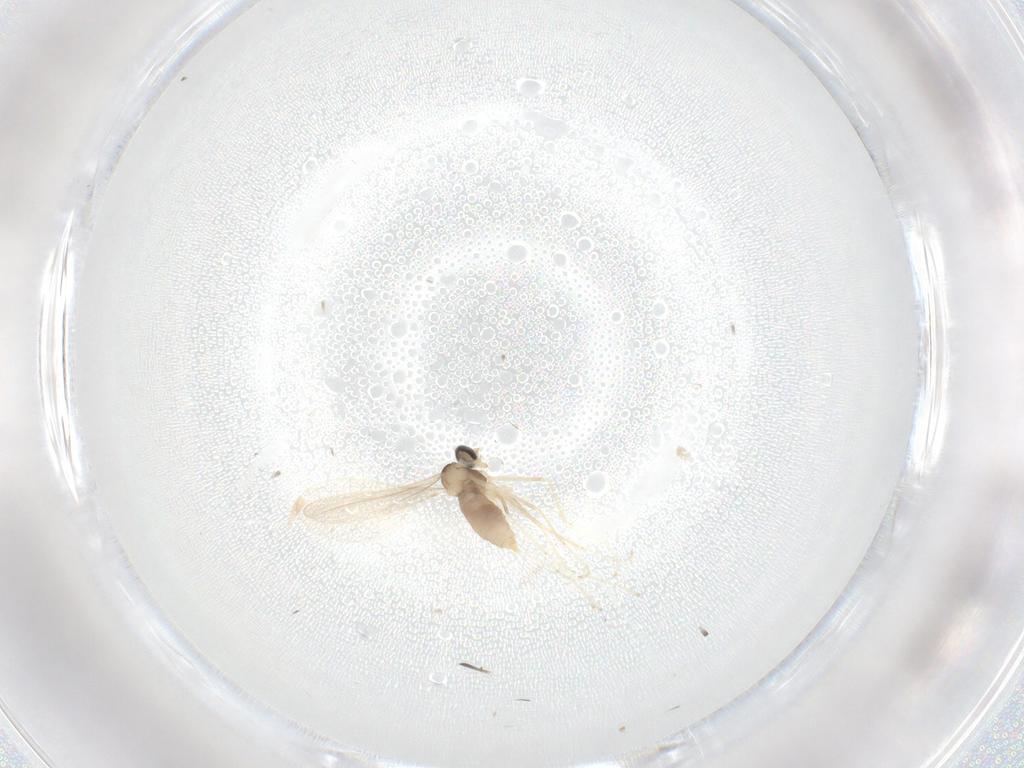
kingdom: Animalia
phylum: Arthropoda
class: Insecta
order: Diptera
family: Cecidomyiidae
